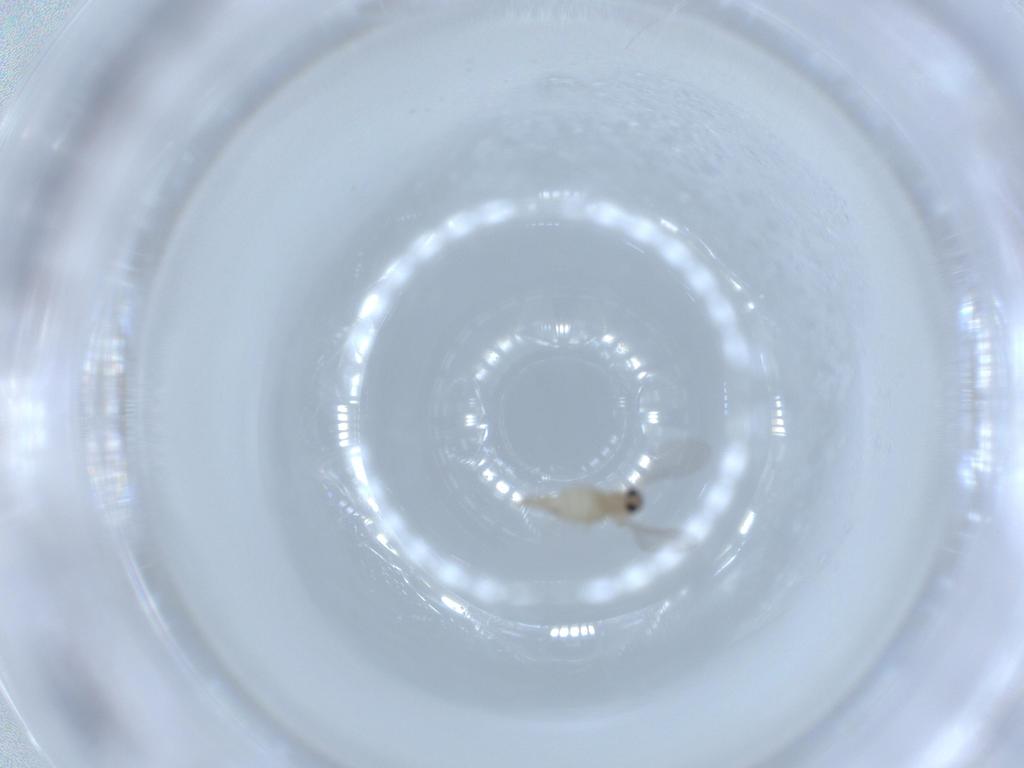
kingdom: Animalia
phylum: Arthropoda
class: Insecta
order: Diptera
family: Cecidomyiidae
